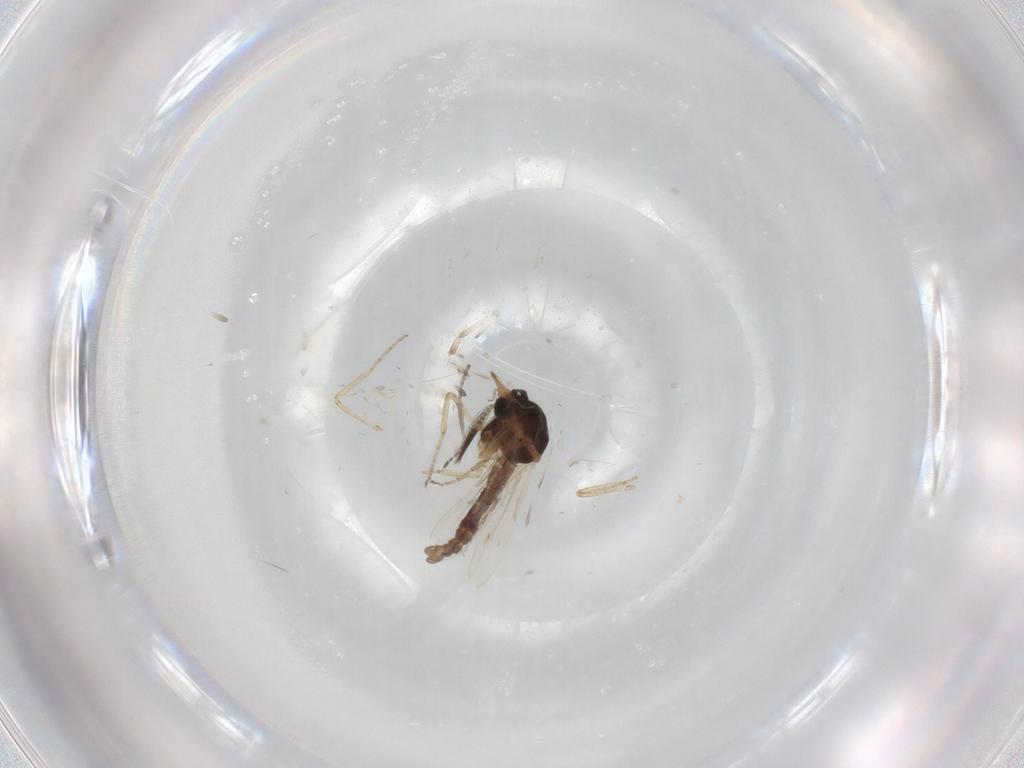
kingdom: Animalia
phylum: Arthropoda
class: Insecta
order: Diptera
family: Ceratopogonidae
